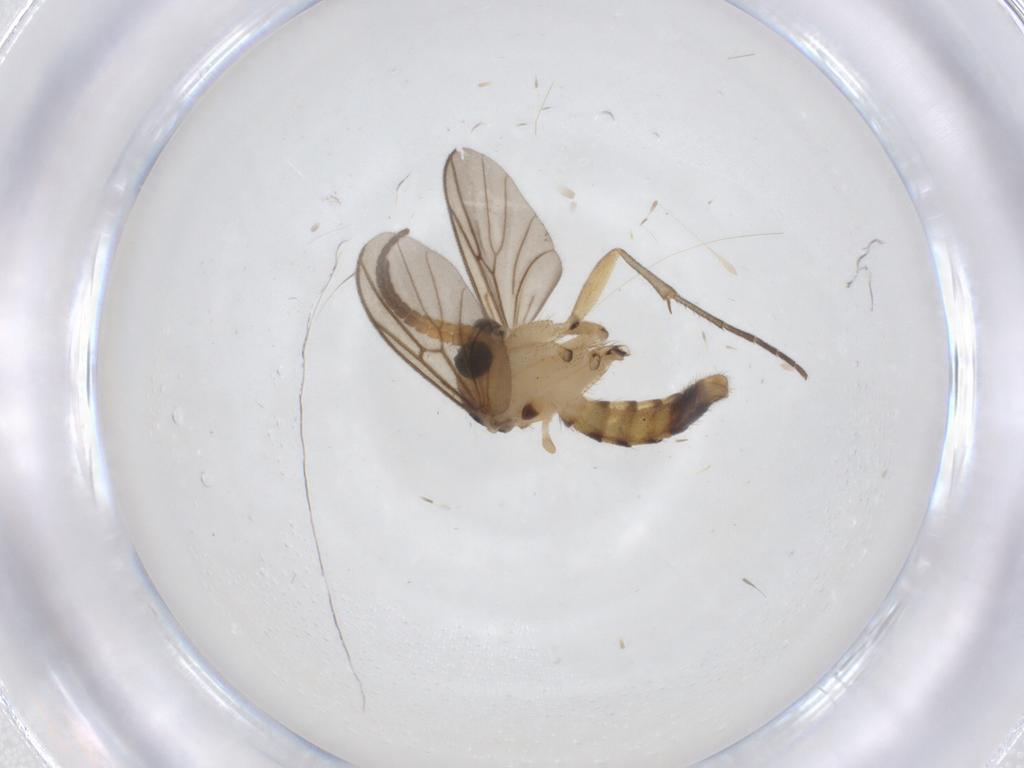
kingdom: Animalia
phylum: Arthropoda
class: Insecta
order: Diptera
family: Cecidomyiidae
